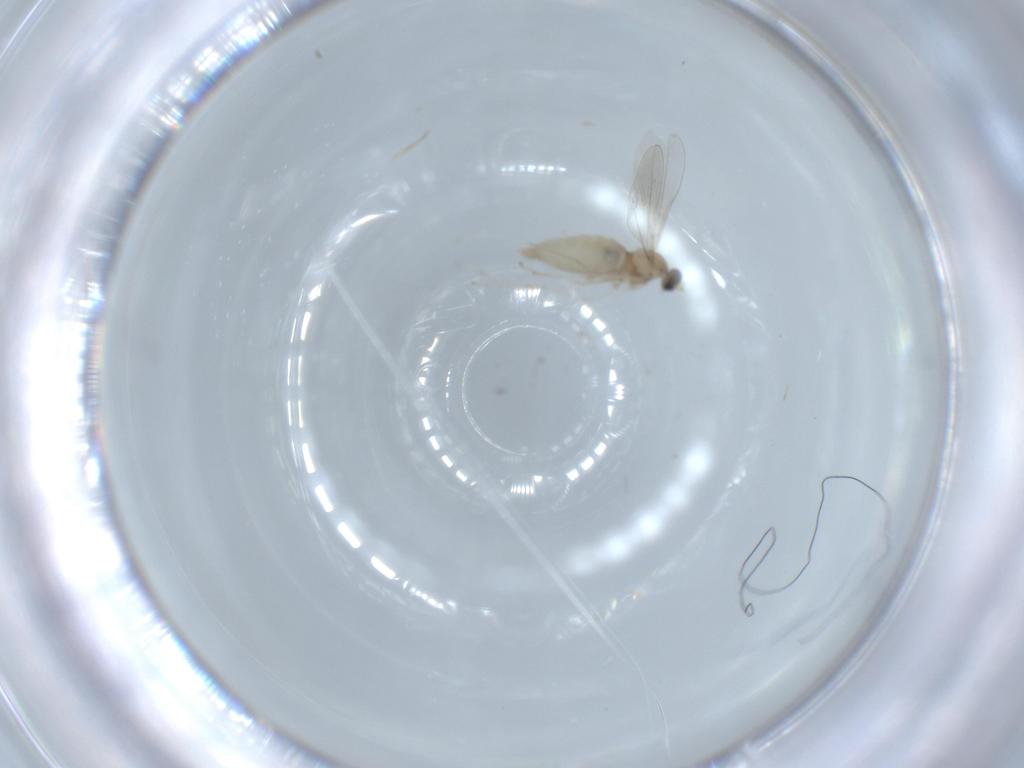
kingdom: Animalia
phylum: Arthropoda
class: Insecta
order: Diptera
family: Cecidomyiidae
